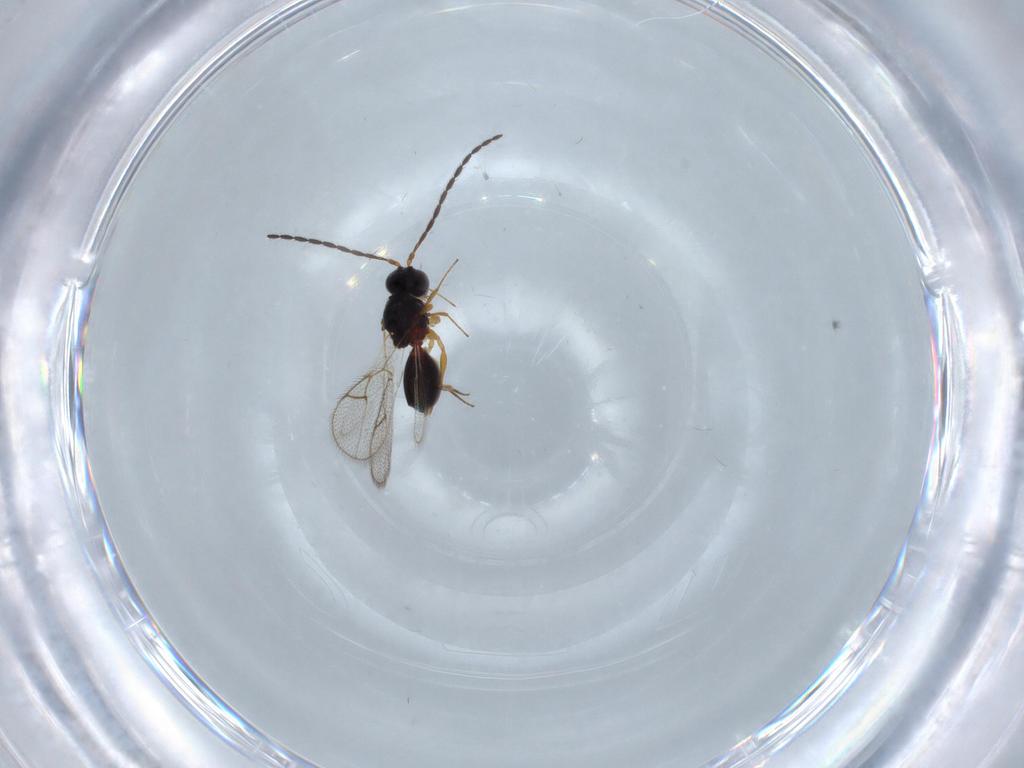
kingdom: Animalia
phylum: Arthropoda
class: Insecta
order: Hymenoptera
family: Figitidae
